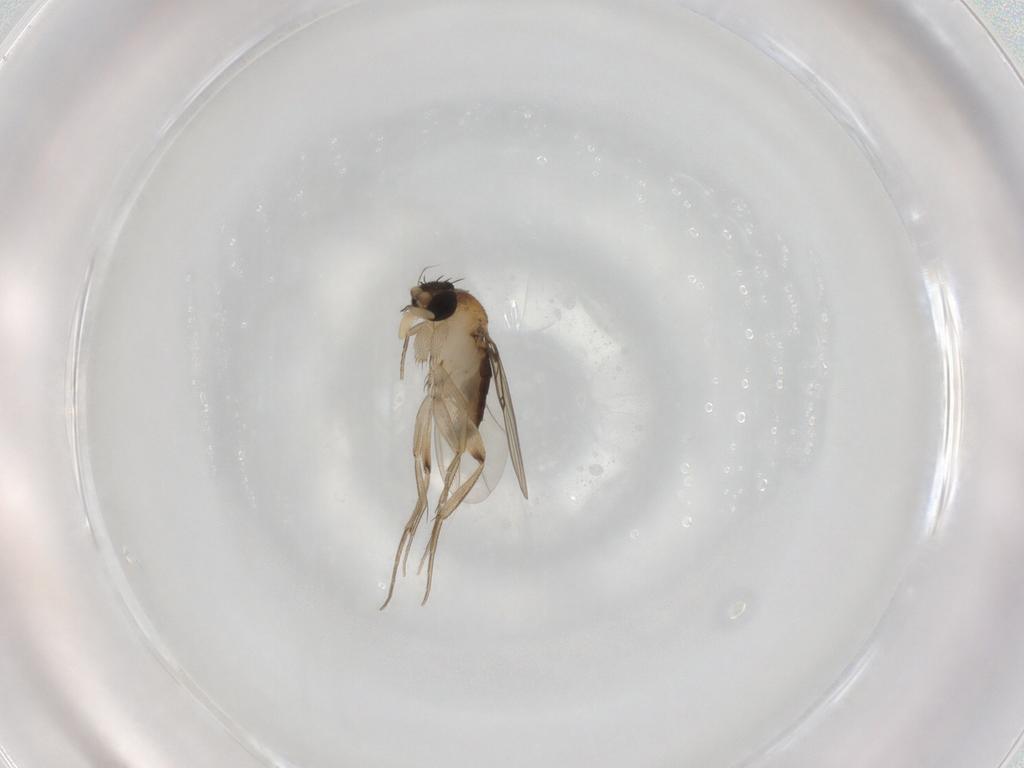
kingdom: Animalia
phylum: Arthropoda
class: Insecta
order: Diptera
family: Phoridae
